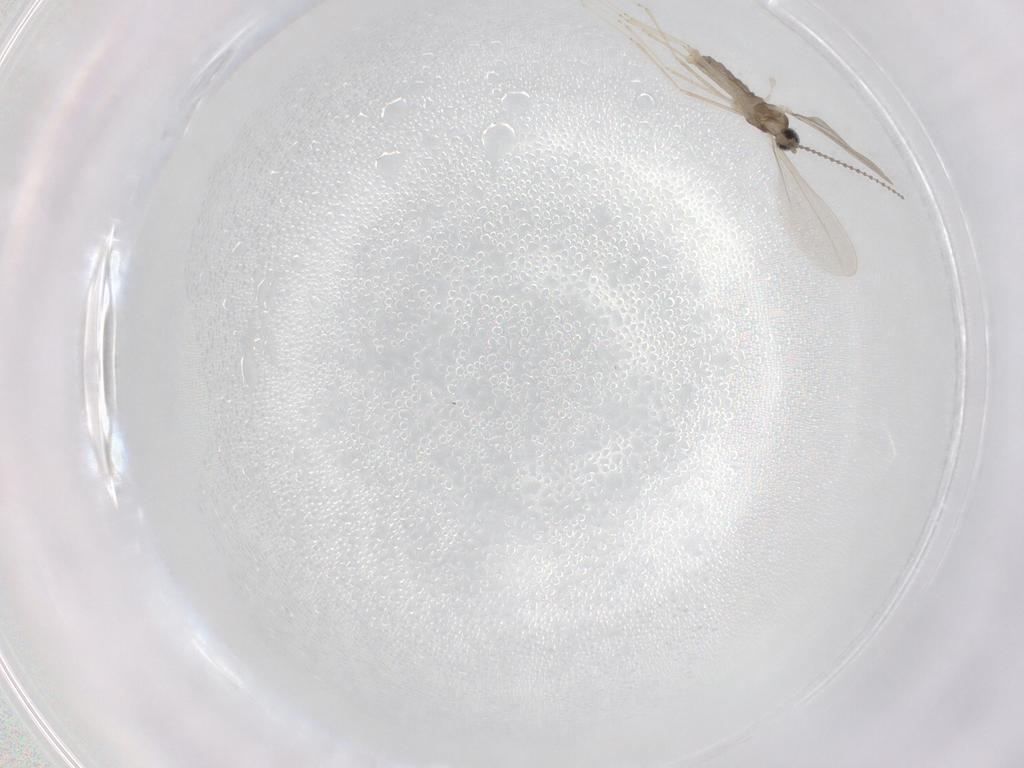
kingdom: Animalia
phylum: Arthropoda
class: Insecta
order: Diptera
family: Cecidomyiidae
